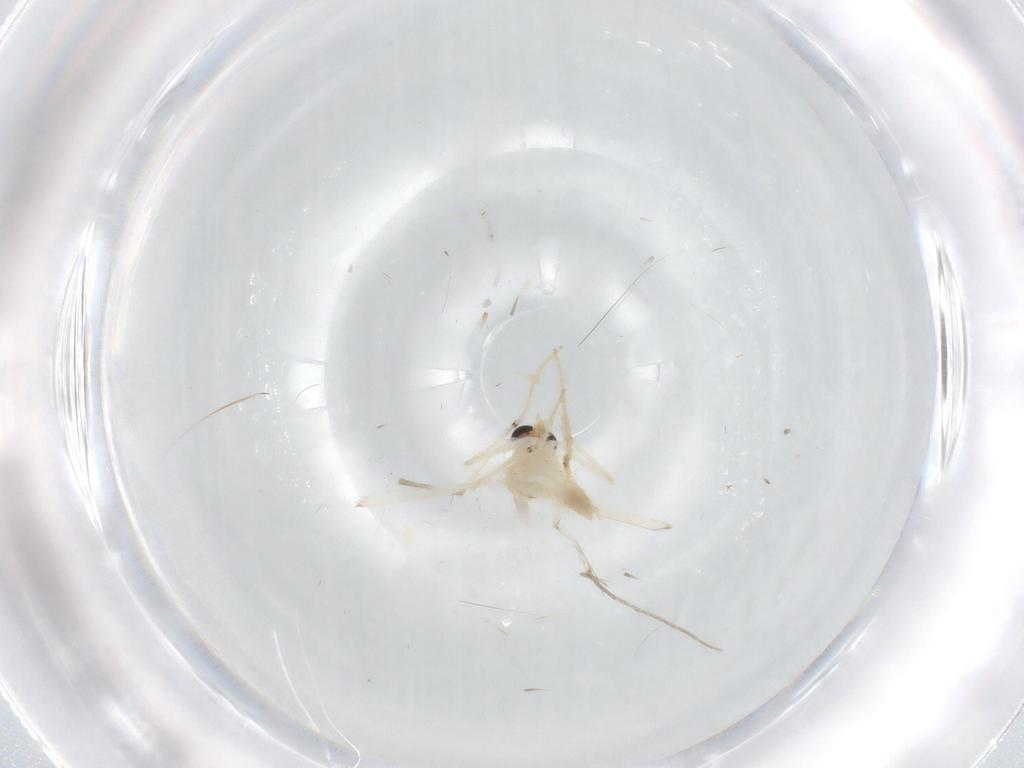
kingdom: Animalia
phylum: Arthropoda
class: Insecta
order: Diptera
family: Chironomidae
